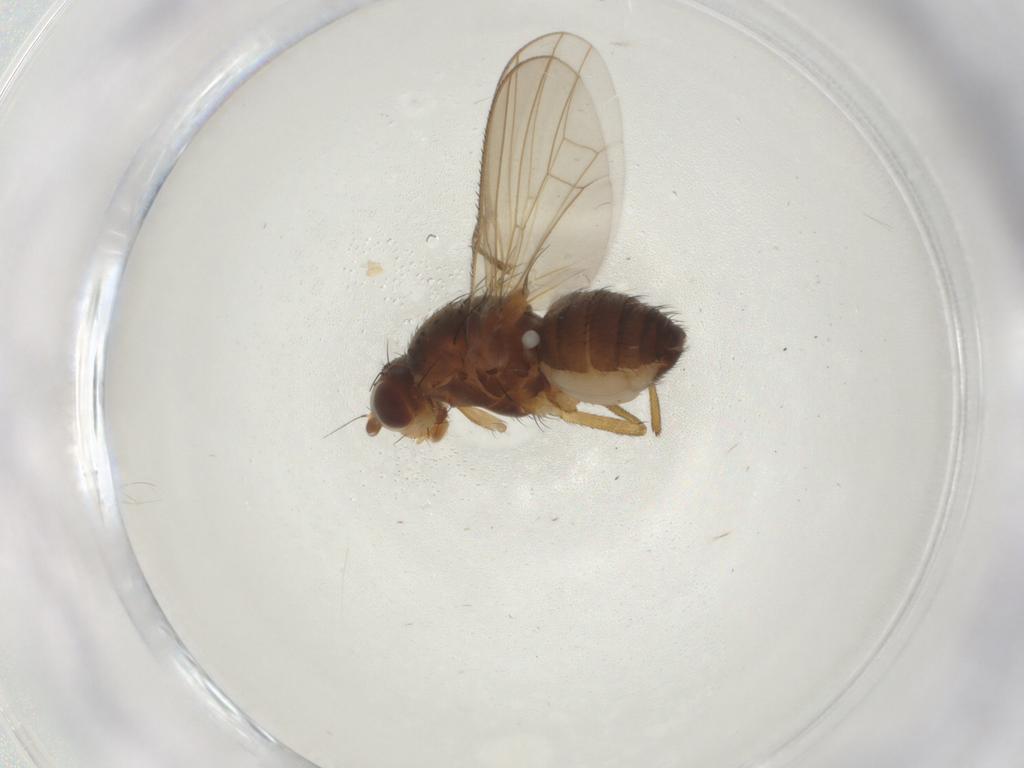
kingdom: Animalia
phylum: Arthropoda
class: Insecta
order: Diptera
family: Heleomyzidae
